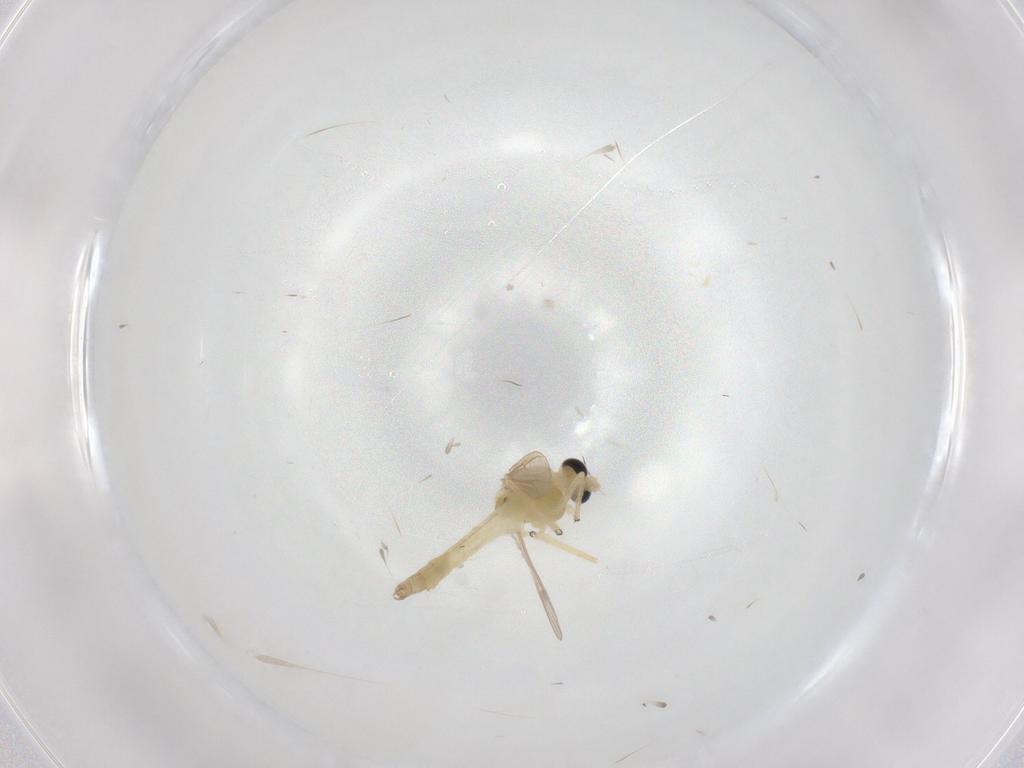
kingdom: Animalia
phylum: Arthropoda
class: Insecta
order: Diptera
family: Chironomidae
